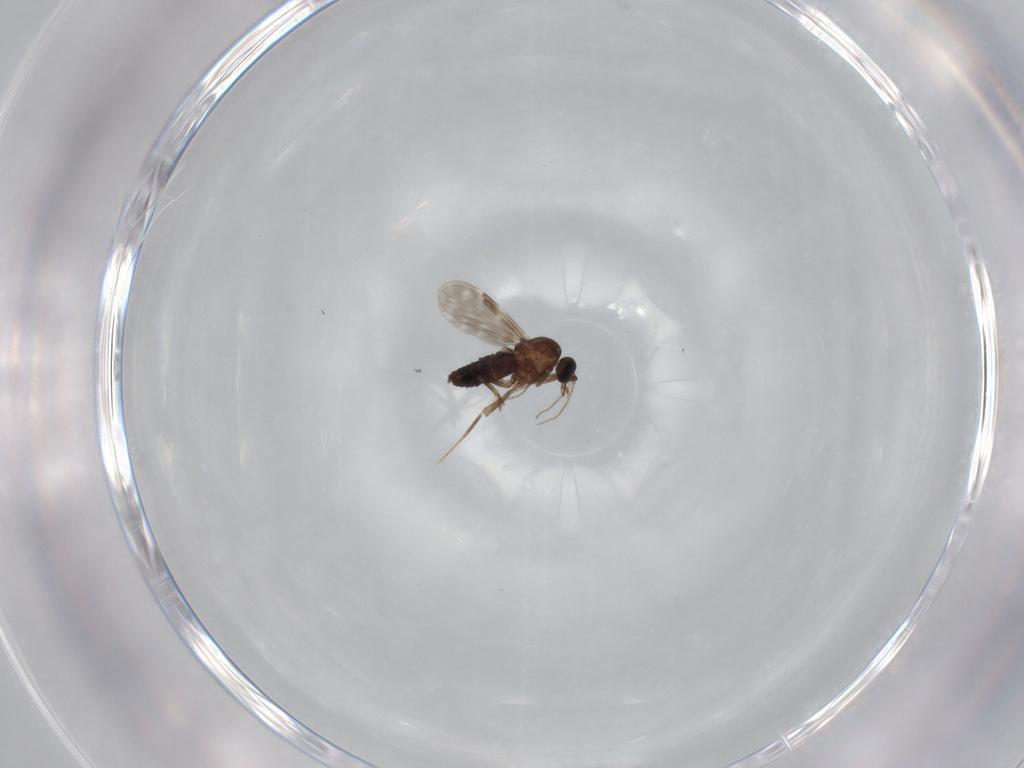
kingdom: Animalia
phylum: Arthropoda
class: Insecta
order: Diptera
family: Ceratopogonidae
